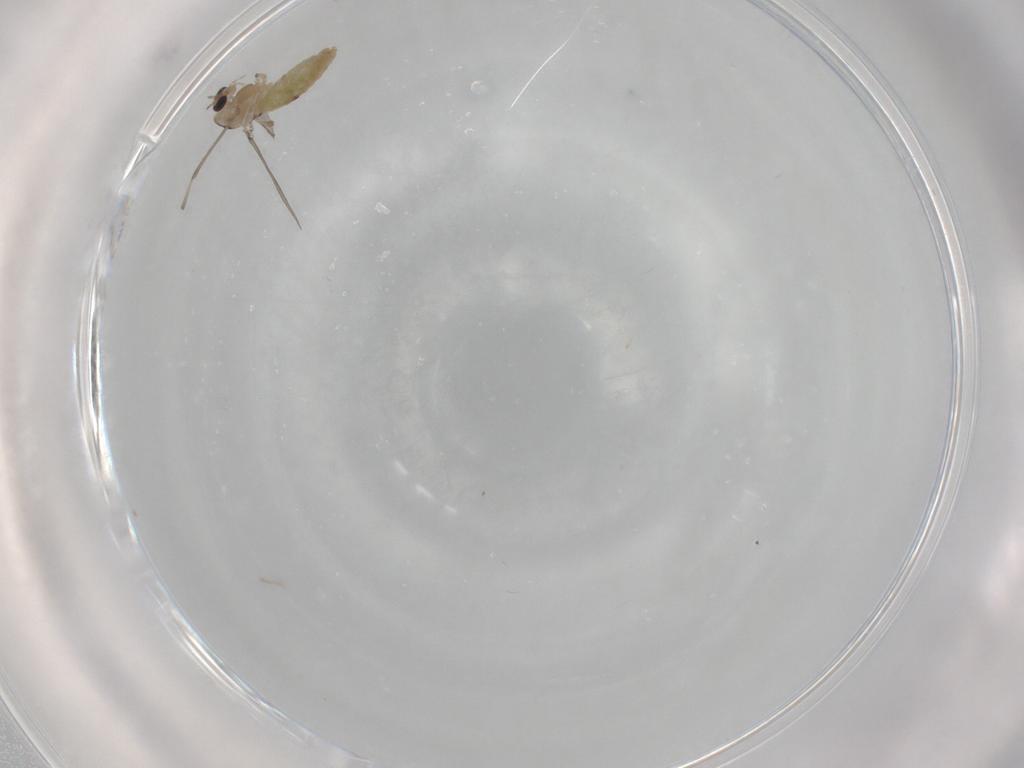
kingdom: Animalia
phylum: Arthropoda
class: Insecta
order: Diptera
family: Chironomidae
